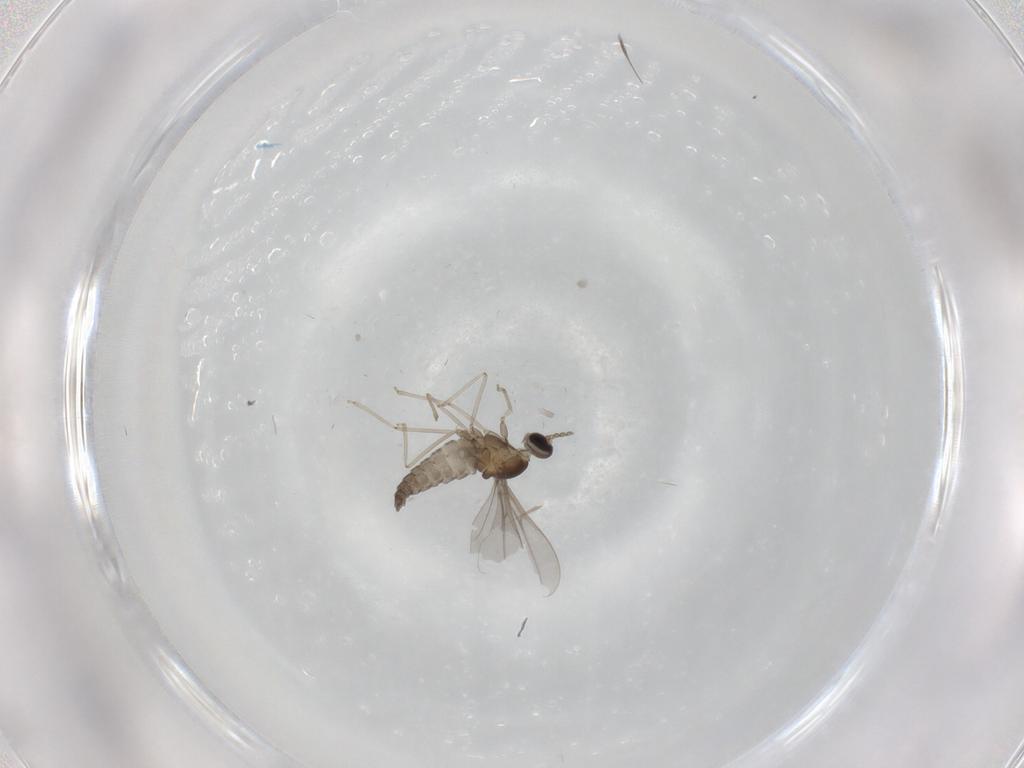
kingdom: Animalia
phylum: Arthropoda
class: Insecta
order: Diptera
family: Cecidomyiidae
